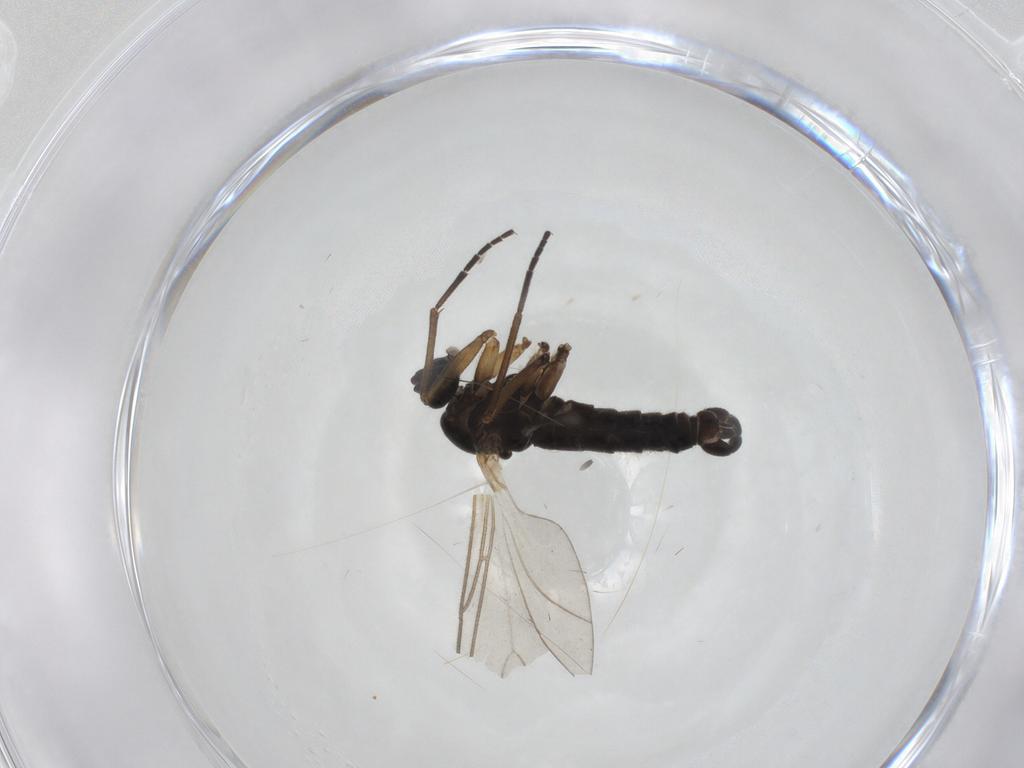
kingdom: Animalia
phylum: Arthropoda
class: Insecta
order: Diptera
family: Sciaridae
